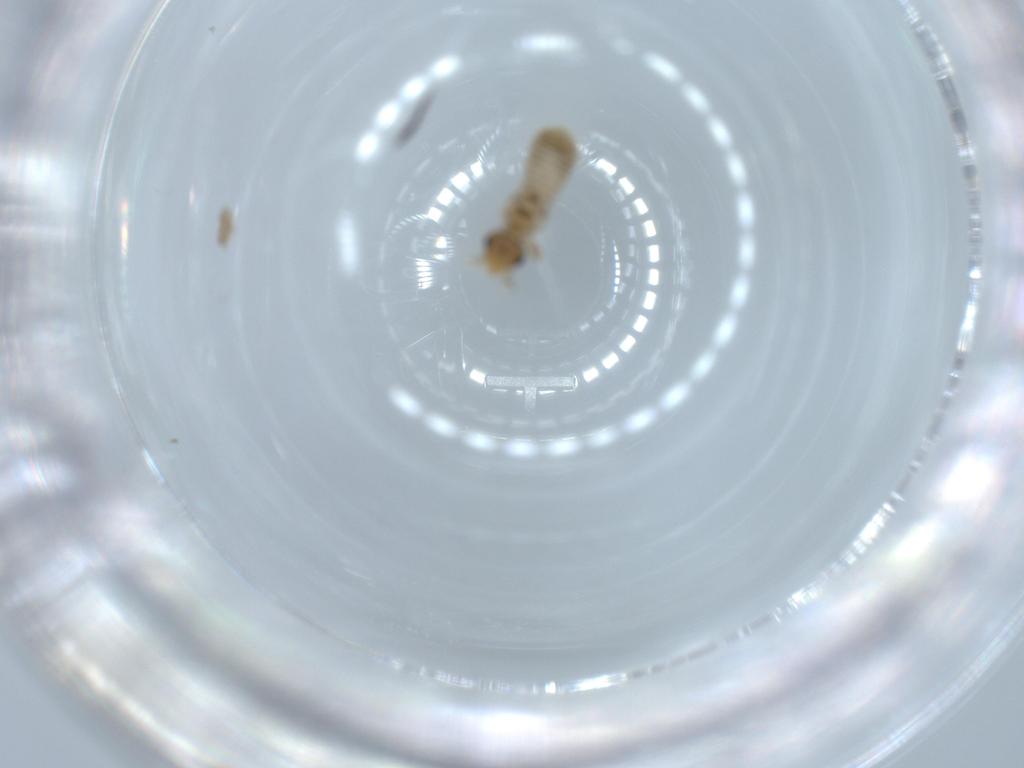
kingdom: Animalia
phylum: Arthropoda
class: Insecta
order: Psocodea
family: Liposcelididae
